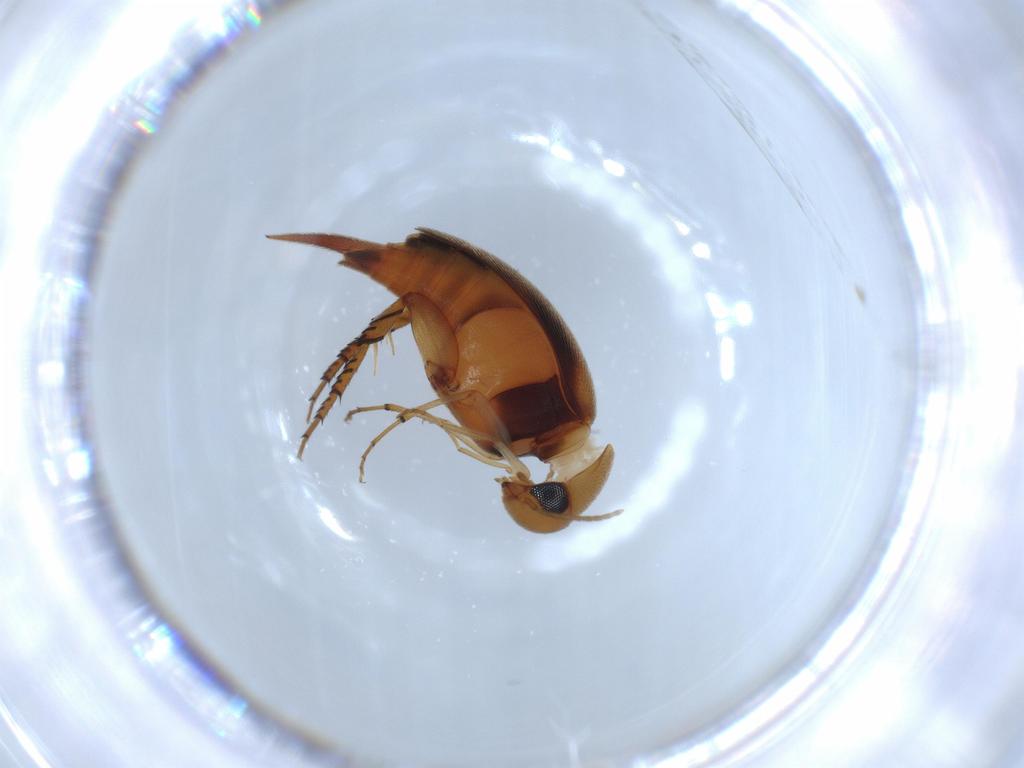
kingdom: Animalia
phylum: Arthropoda
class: Insecta
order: Coleoptera
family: Mordellidae
